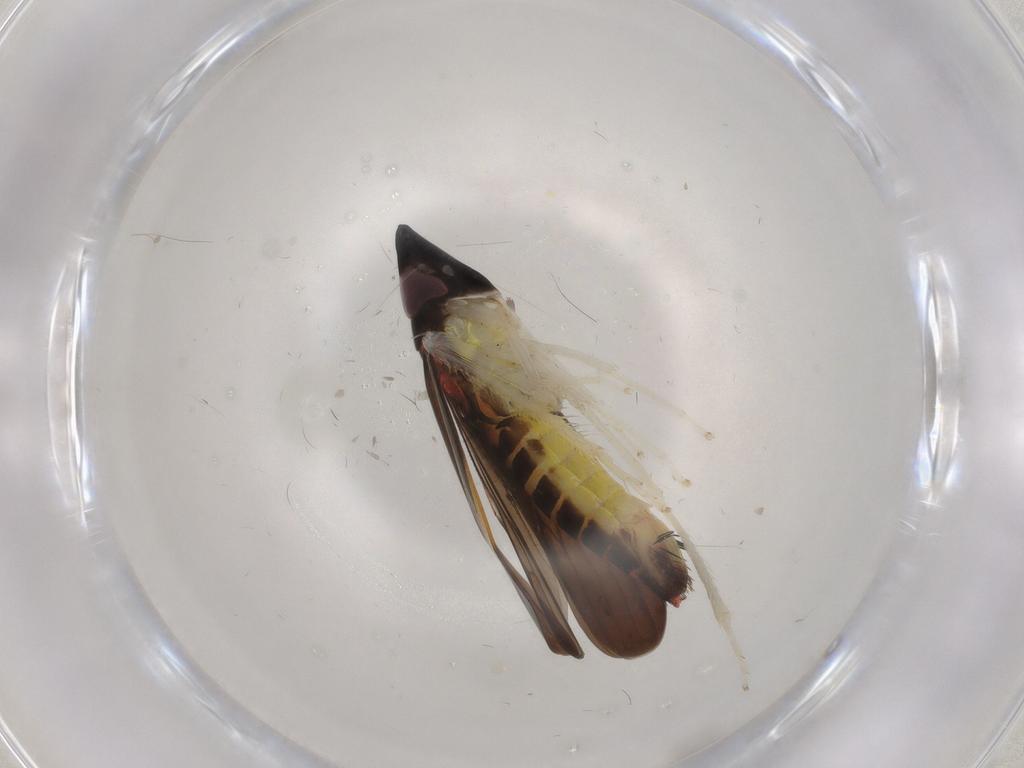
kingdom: Animalia
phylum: Arthropoda
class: Insecta
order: Hemiptera
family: Cicadellidae
